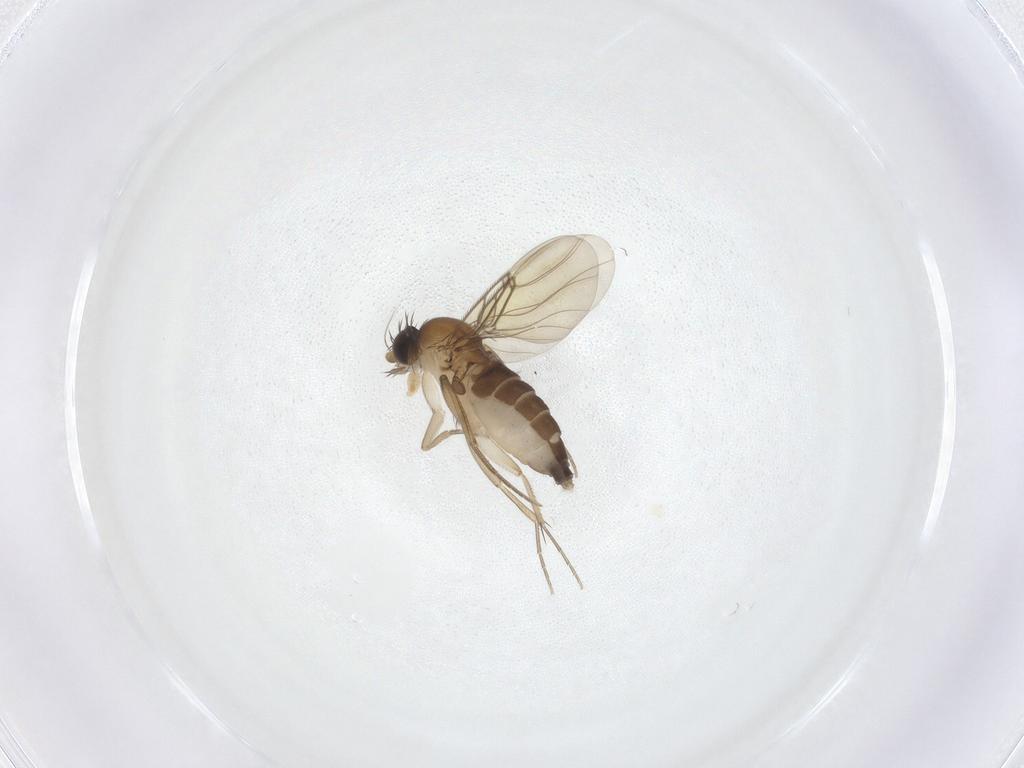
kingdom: Animalia
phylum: Arthropoda
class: Insecta
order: Diptera
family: Phoridae
